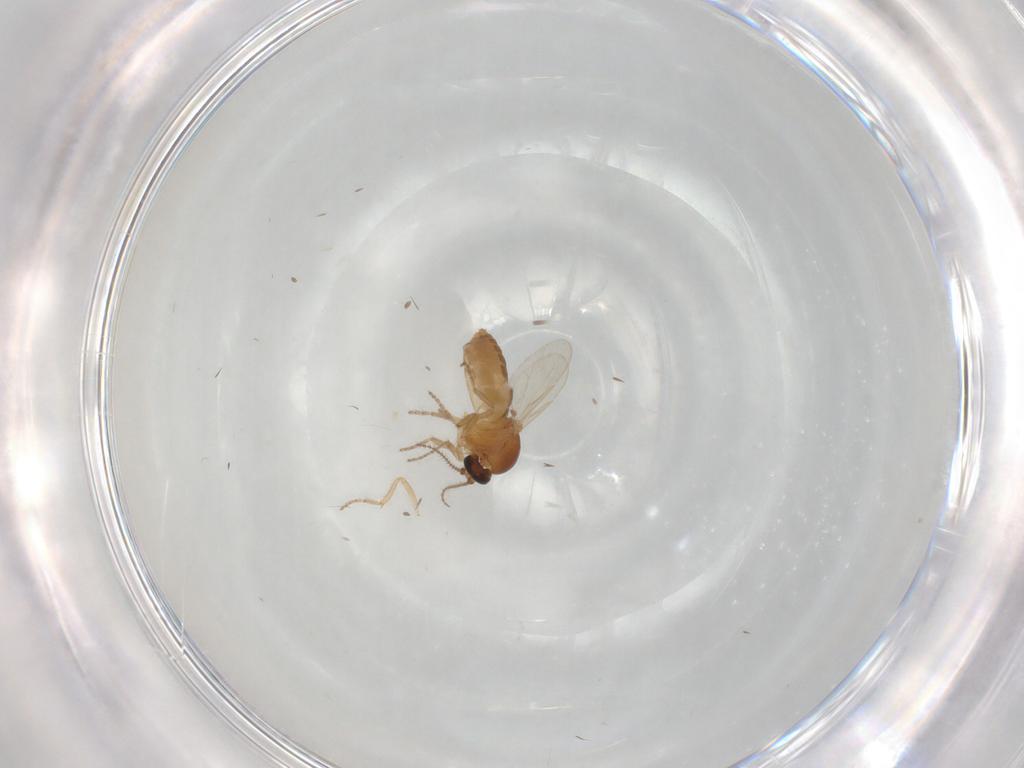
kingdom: Animalia
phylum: Arthropoda
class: Insecta
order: Diptera
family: Ceratopogonidae
